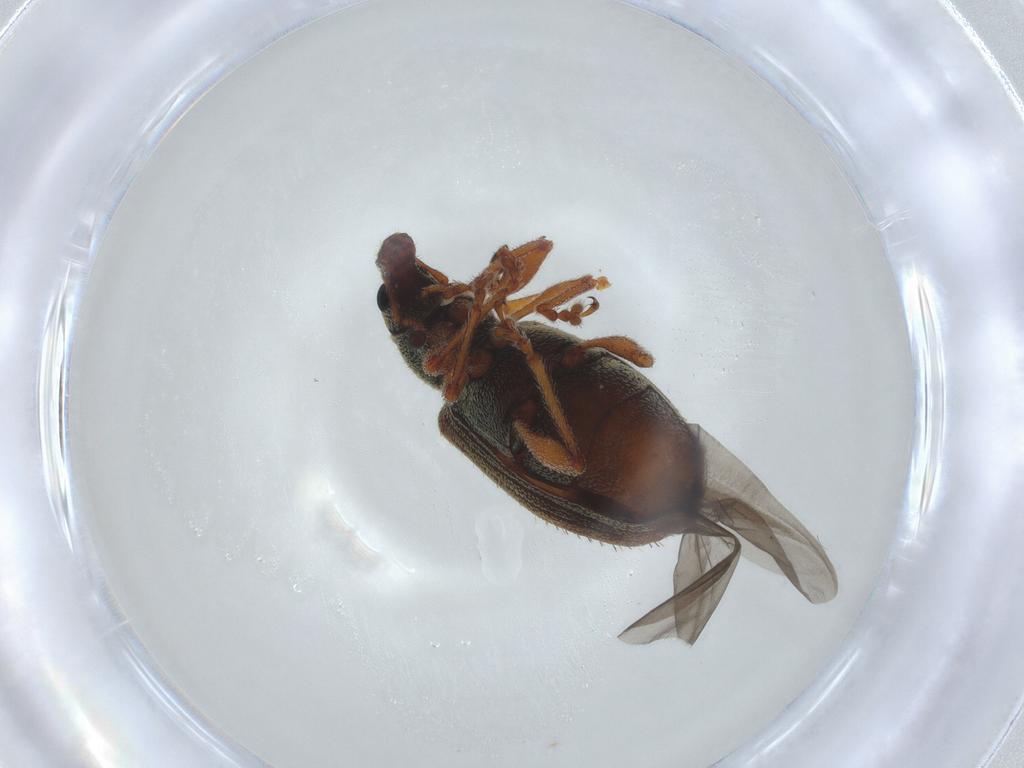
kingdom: Animalia
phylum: Arthropoda
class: Insecta
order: Coleoptera
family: Curculionidae
